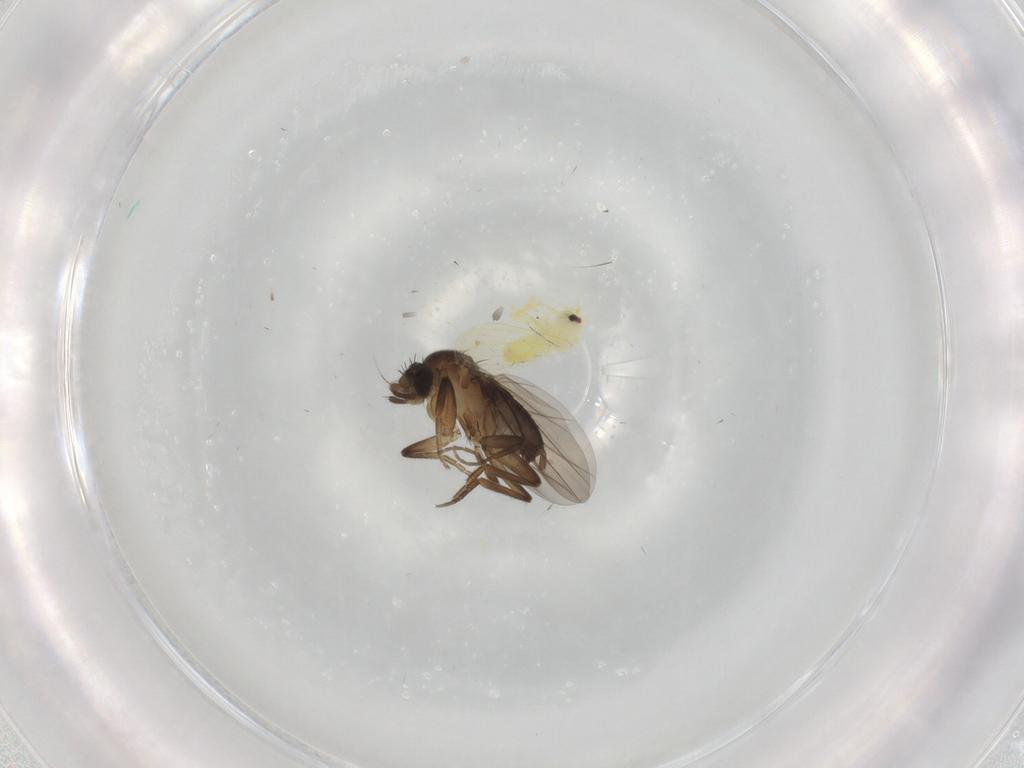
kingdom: Animalia
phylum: Arthropoda
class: Insecta
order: Diptera
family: Phoridae
